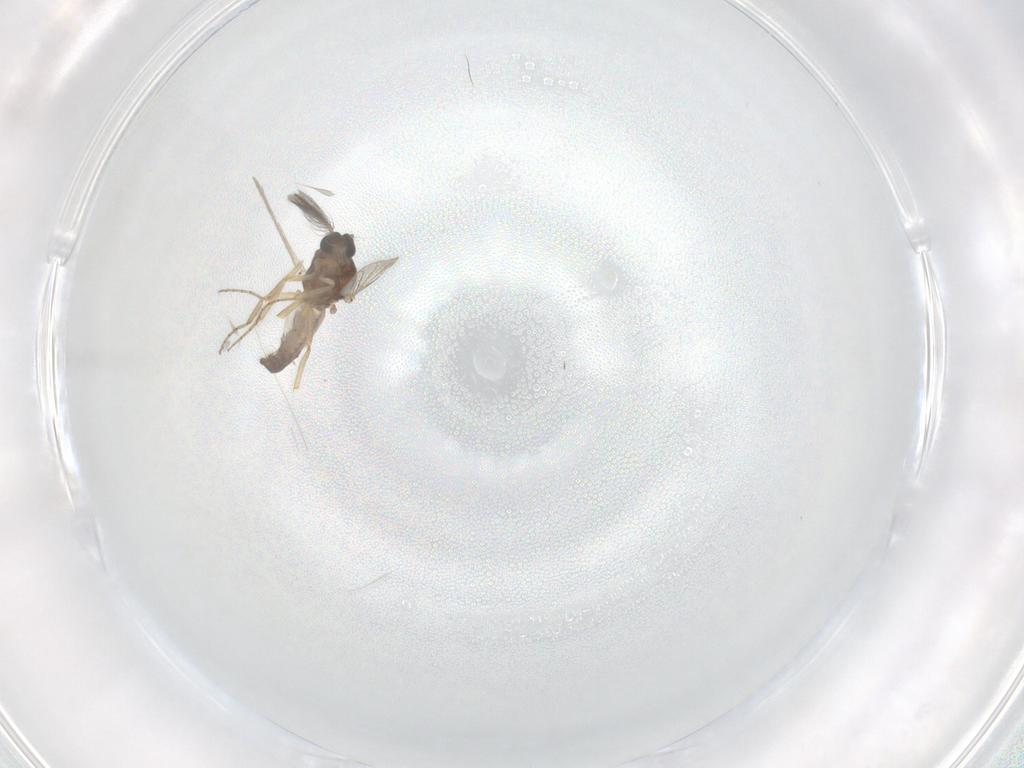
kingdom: Animalia
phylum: Arthropoda
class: Insecta
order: Diptera
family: Ceratopogonidae
